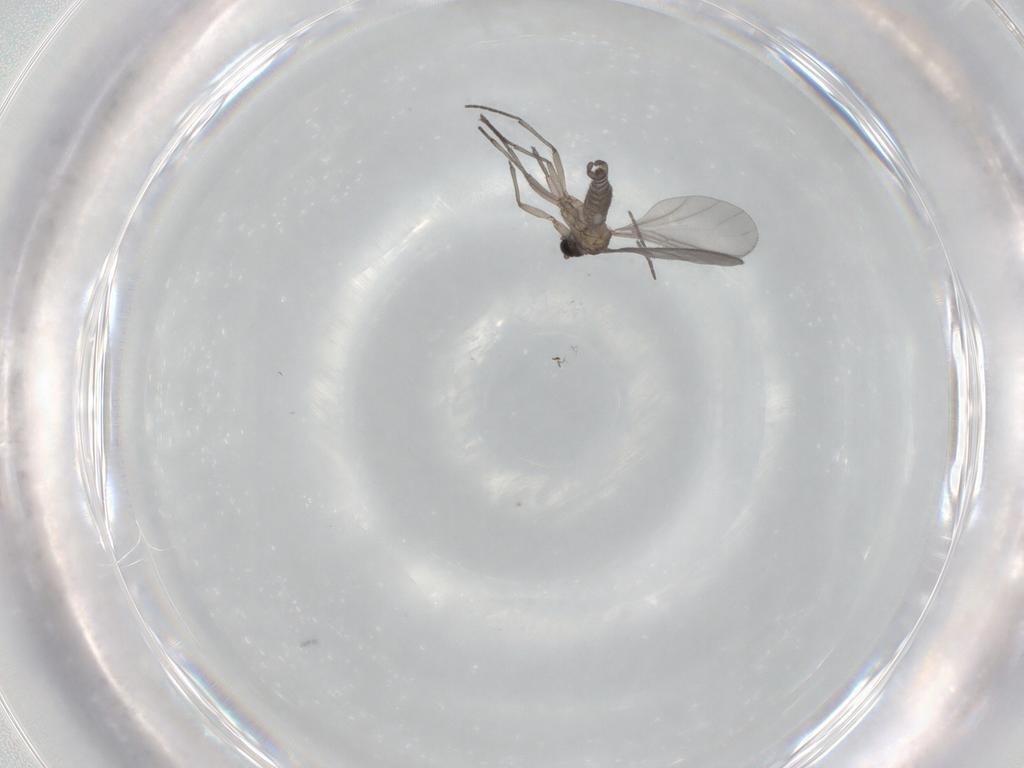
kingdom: Animalia
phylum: Arthropoda
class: Insecta
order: Diptera
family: Sciaridae
